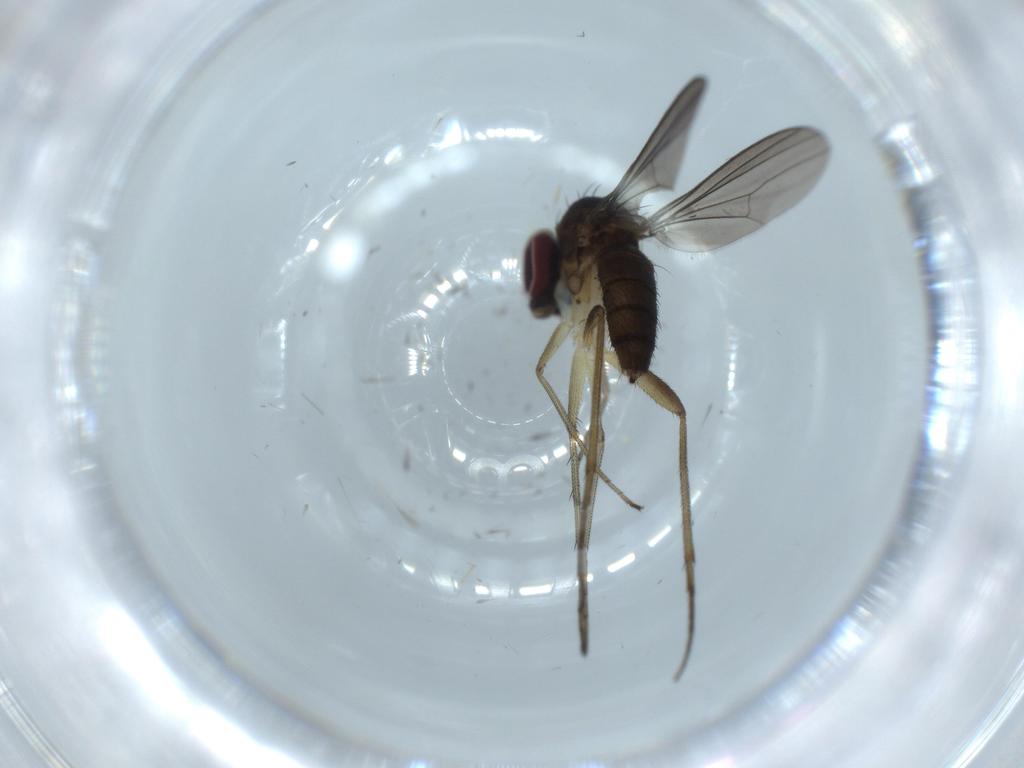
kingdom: Animalia
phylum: Arthropoda
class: Insecta
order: Diptera
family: Dolichopodidae
